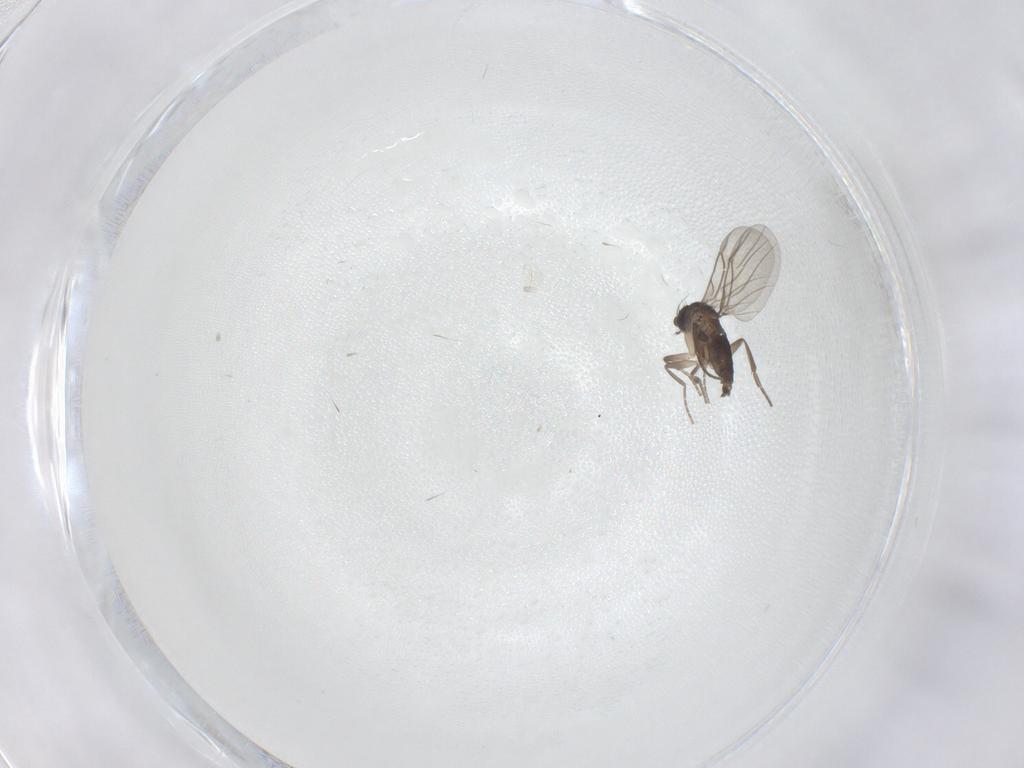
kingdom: Animalia
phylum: Arthropoda
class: Insecta
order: Diptera
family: Phoridae
